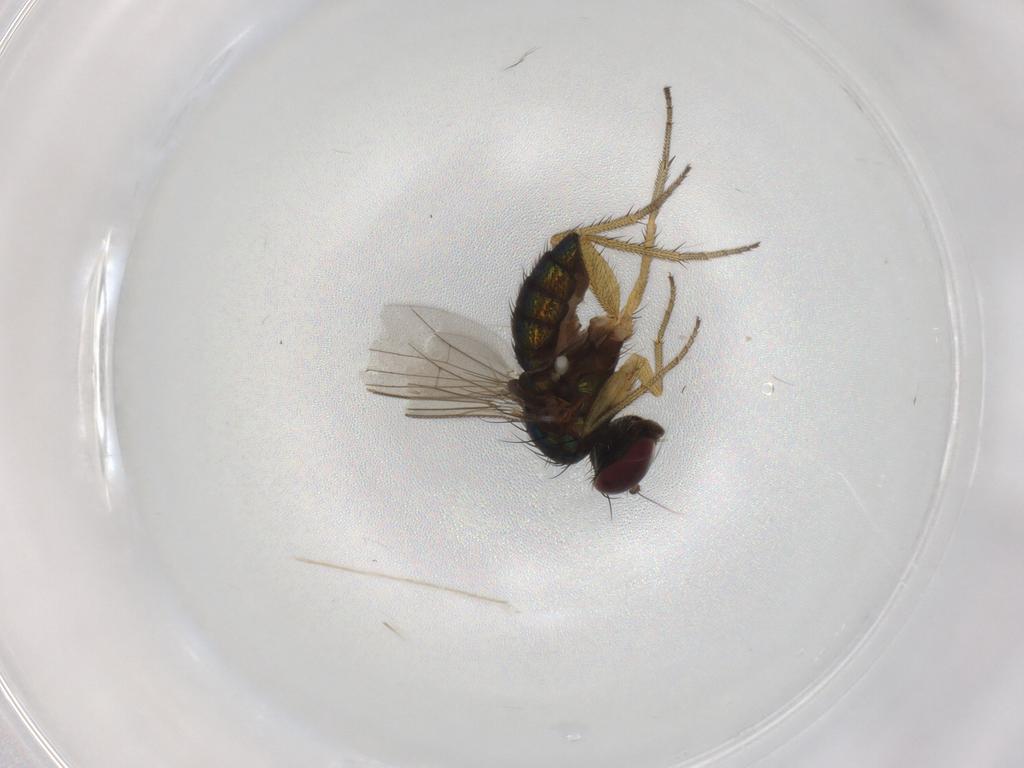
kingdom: Animalia
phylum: Arthropoda
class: Insecta
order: Diptera
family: Dolichopodidae
